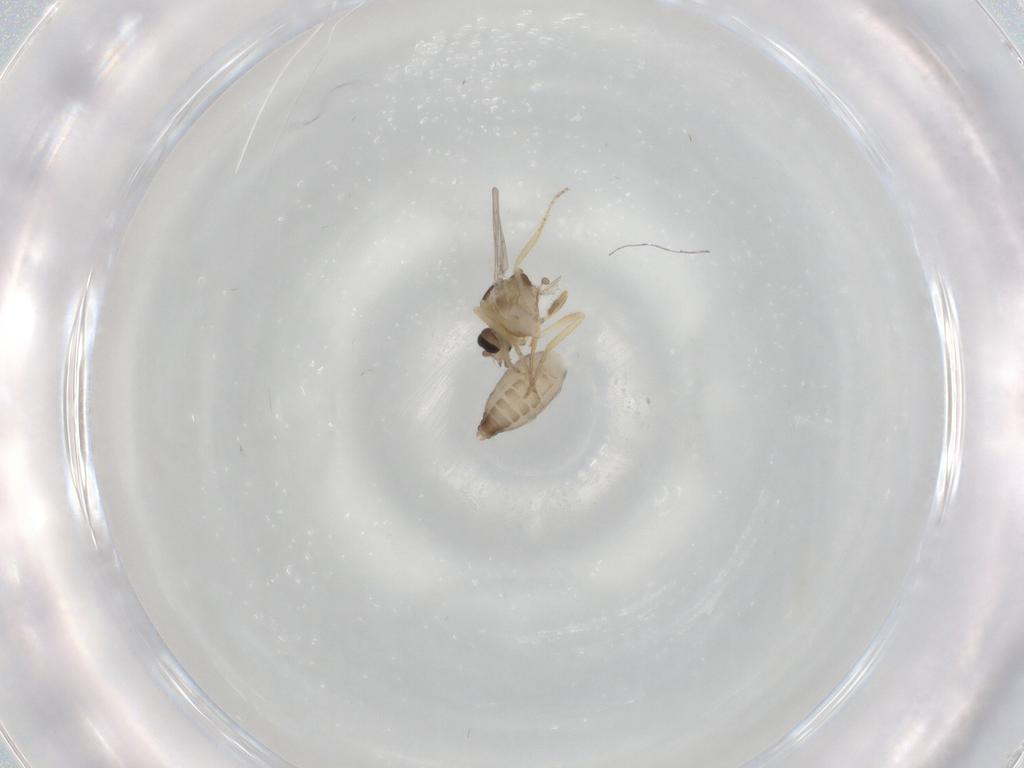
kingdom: Animalia
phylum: Arthropoda
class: Insecta
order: Diptera
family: Ceratopogonidae
